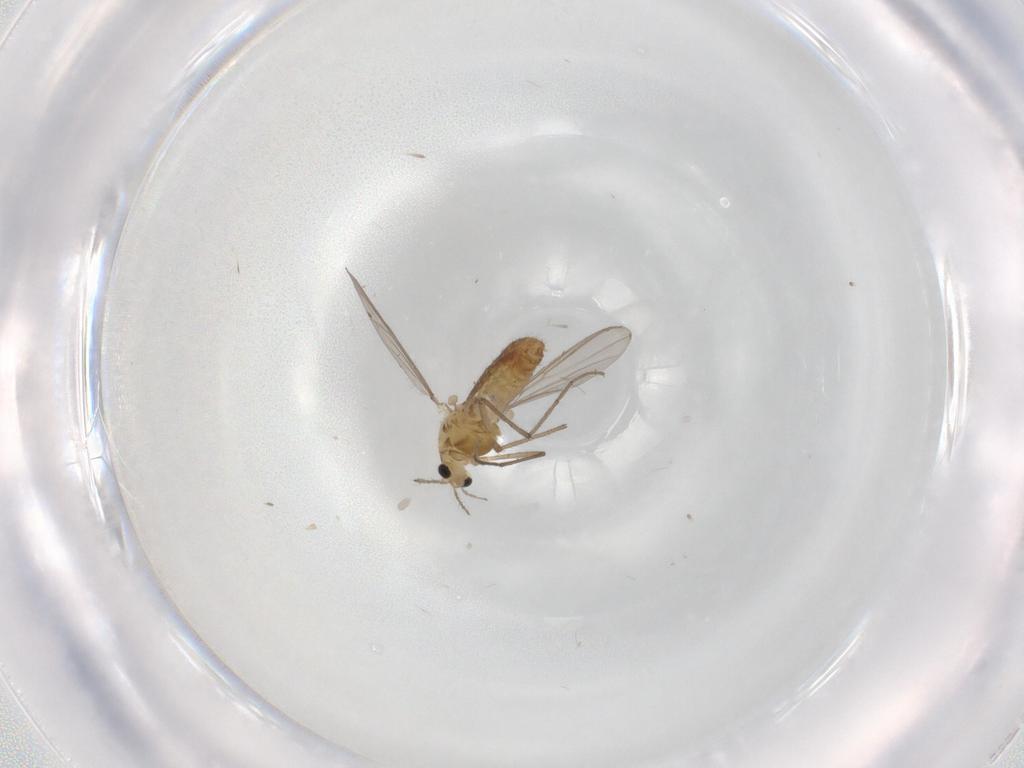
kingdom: Animalia
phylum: Arthropoda
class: Insecta
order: Diptera
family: Chironomidae
